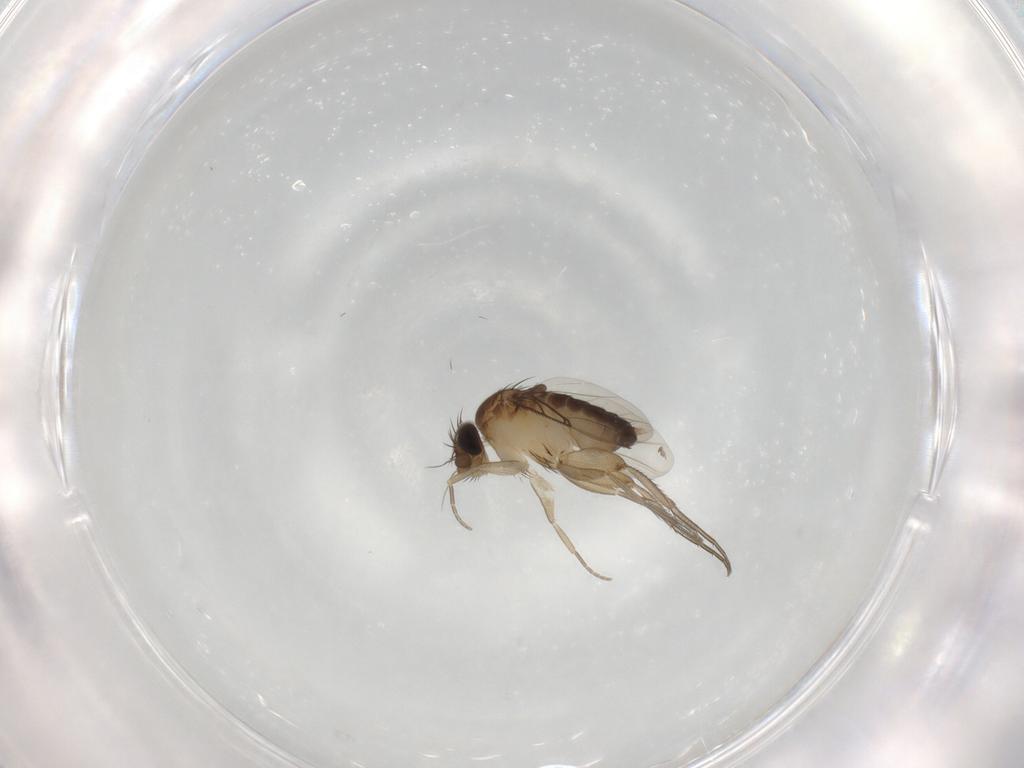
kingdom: Animalia
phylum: Arthropoda
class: Insecta
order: Diptera
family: Phoridae
